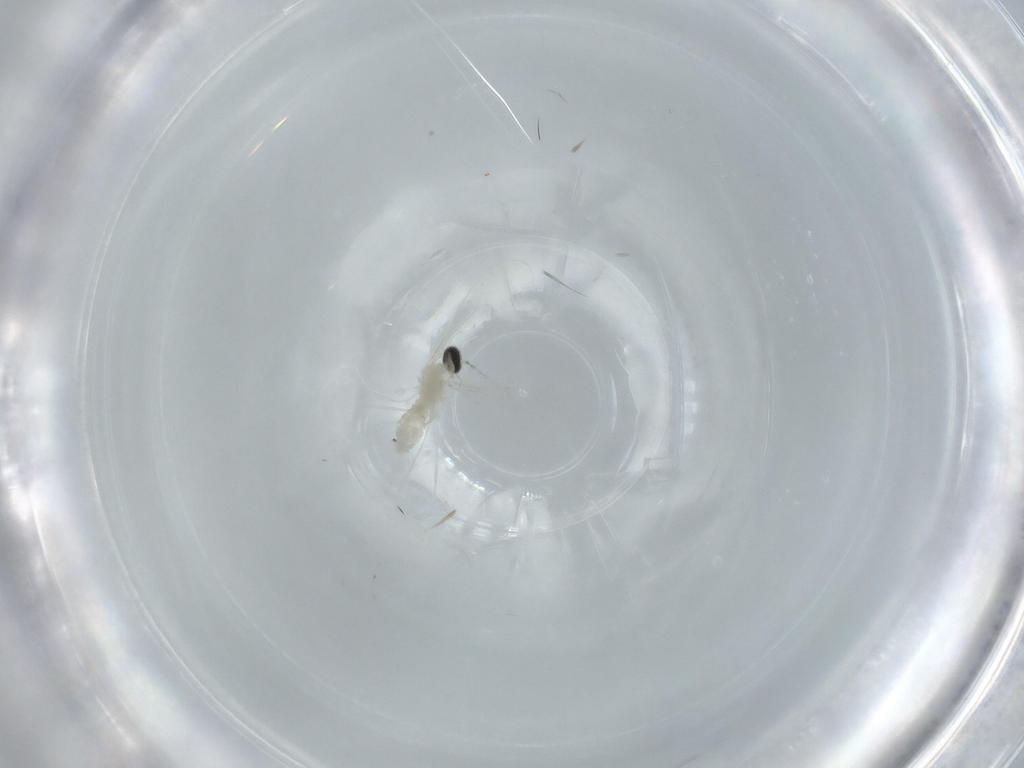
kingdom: Animalia
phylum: Arthropoda
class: Insecta
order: Diptera
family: Cecidomyiidae
